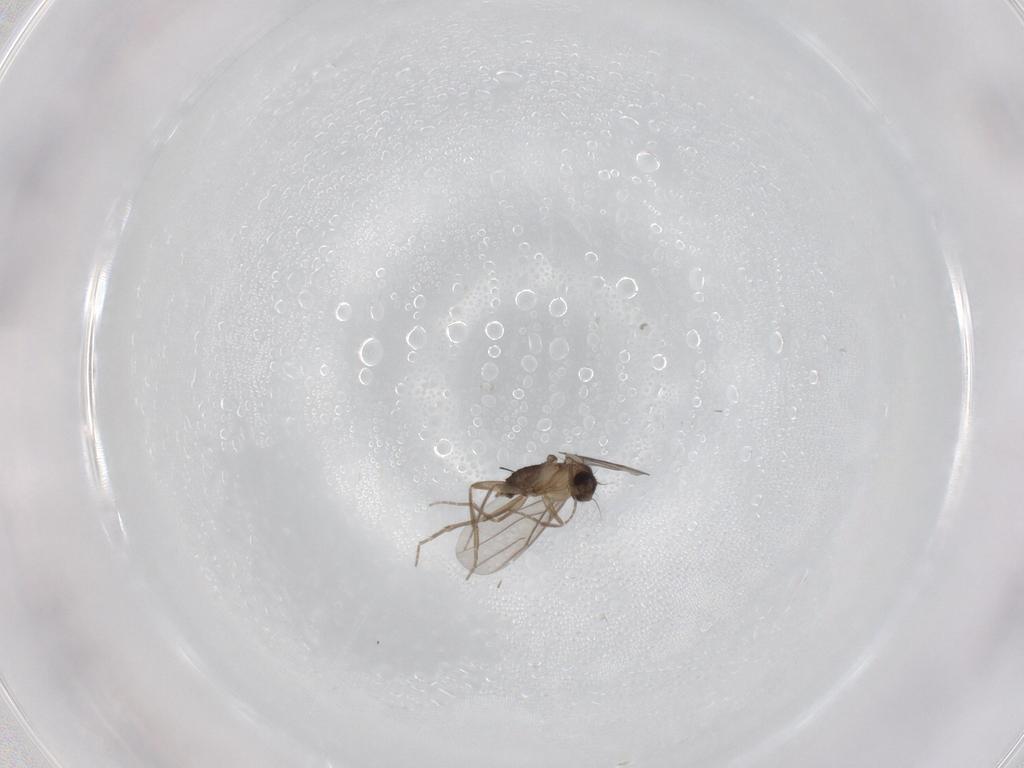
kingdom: Animalia
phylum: Arthropoda
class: Insecta
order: Diptera
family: Phoridae
